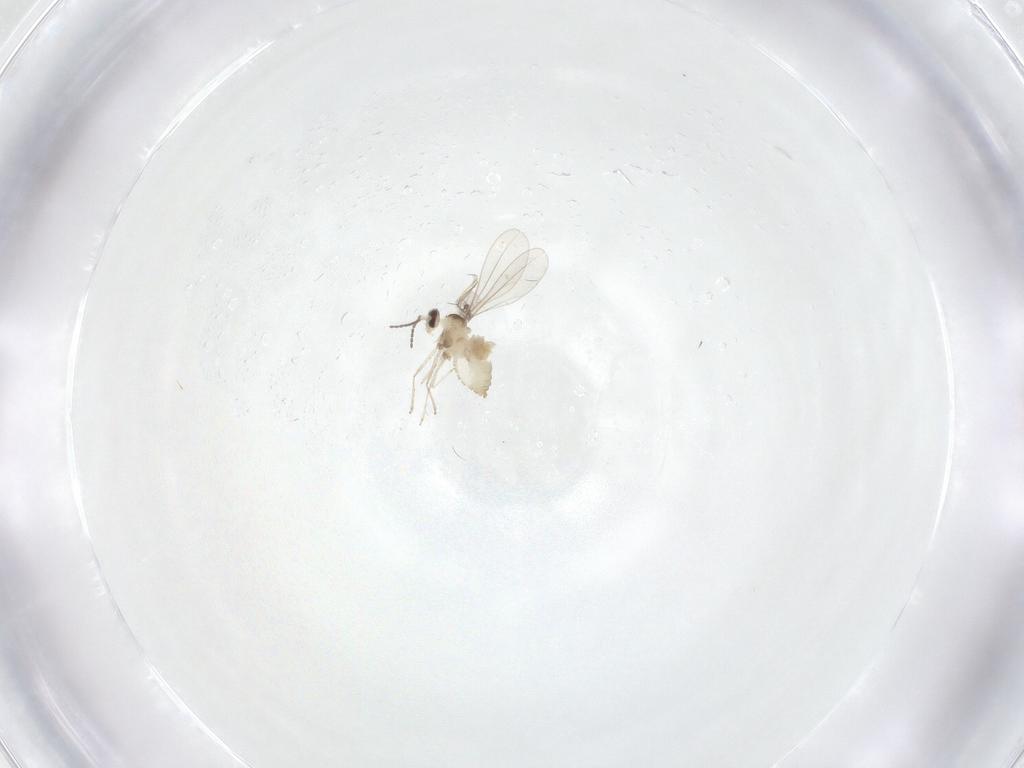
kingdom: Animalia
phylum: Arthropoda
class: Insecta
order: Diptera
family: Cecidomyiidae
